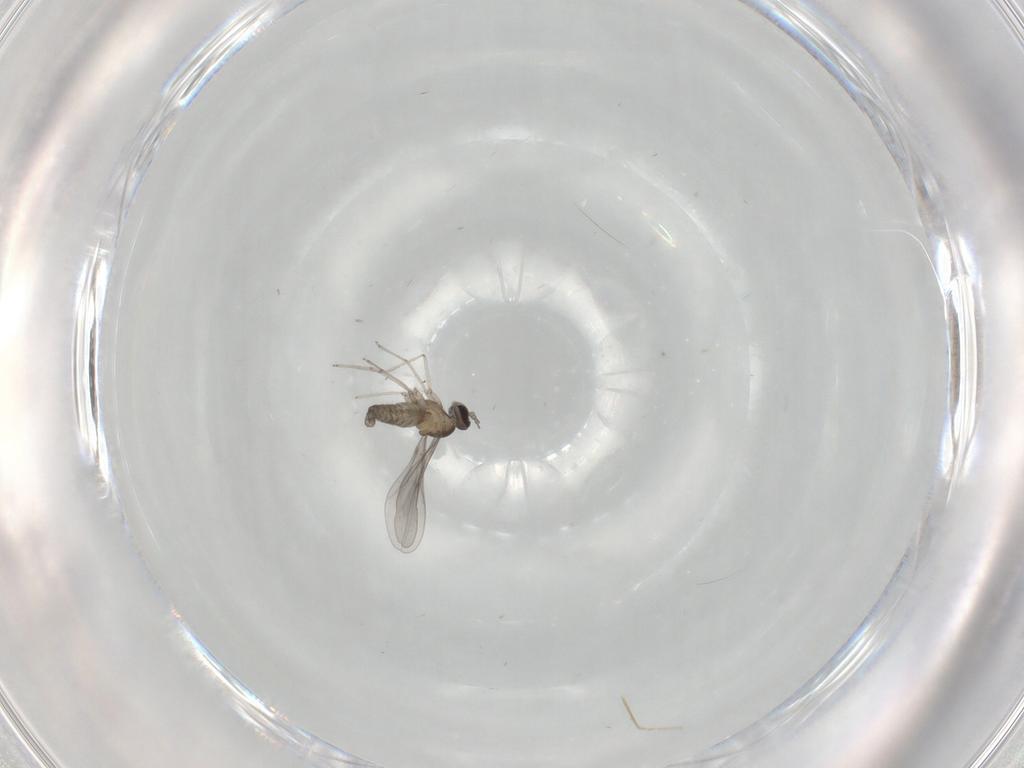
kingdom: Animalia
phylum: Arthropoda
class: Insecta
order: Diptera
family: Cecidomyiidae
